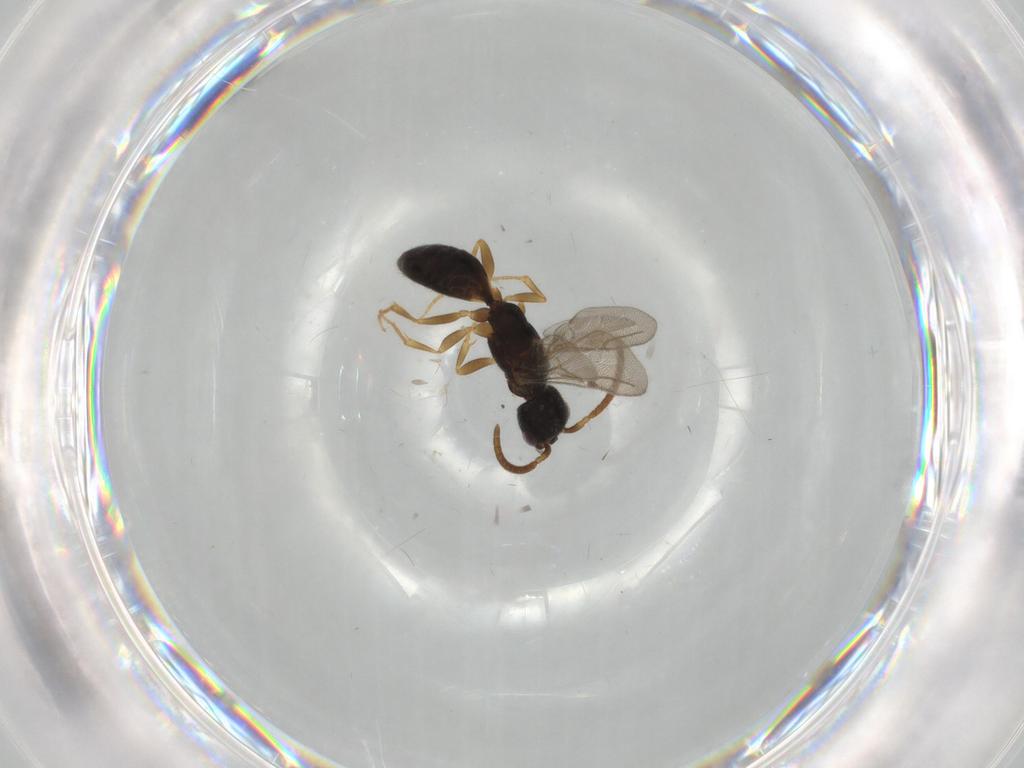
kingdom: Animalia
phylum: Arthropoda
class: Insecta
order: Hymenoptera
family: Bethylidae
